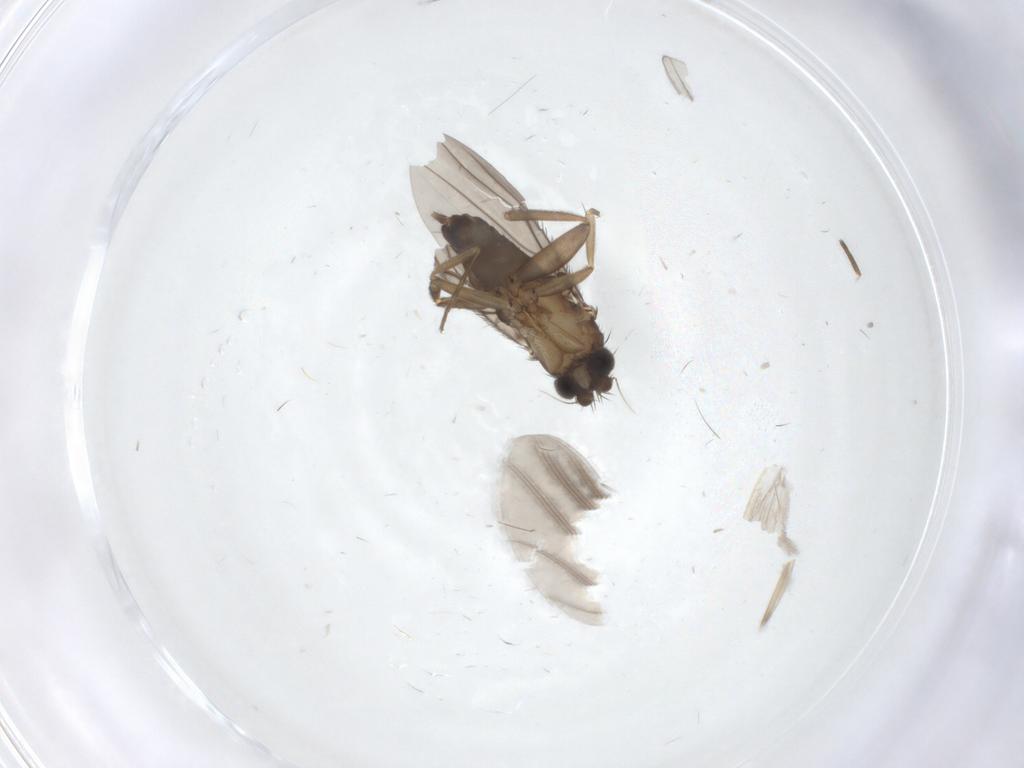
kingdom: Animalia
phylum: Arthropoda
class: Insecta
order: Diptera
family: Cecidomyiidae
